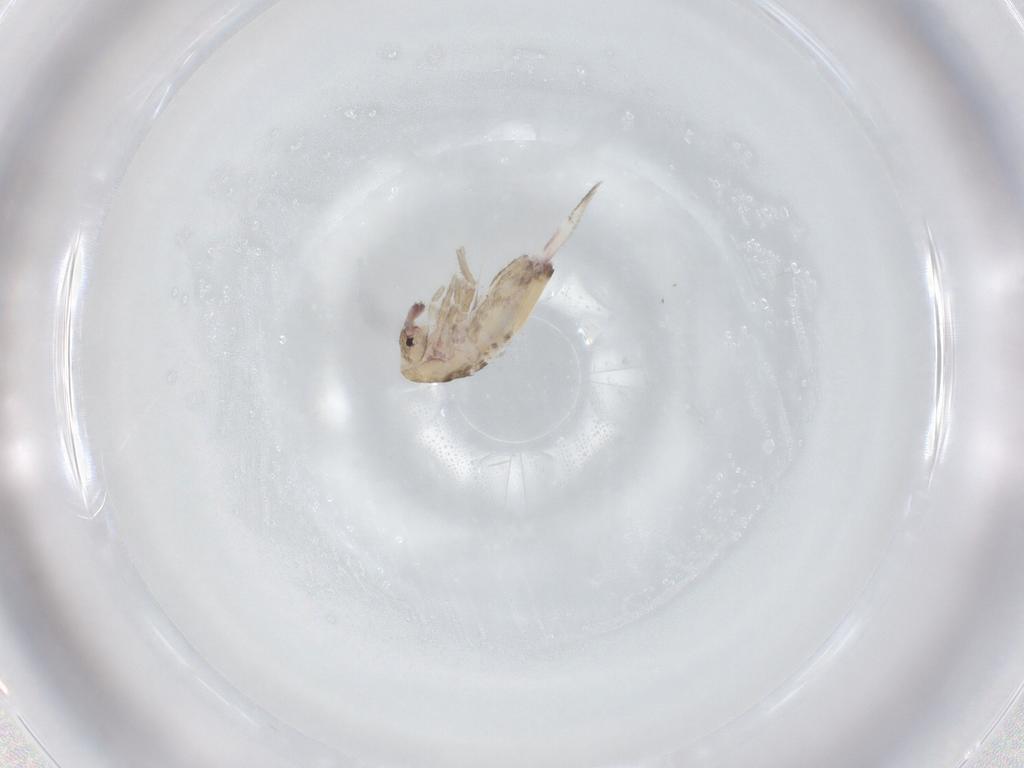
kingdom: Animalia
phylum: Arthropoda
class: Collembola
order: Entomobryomorpha
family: Entomobryidae
